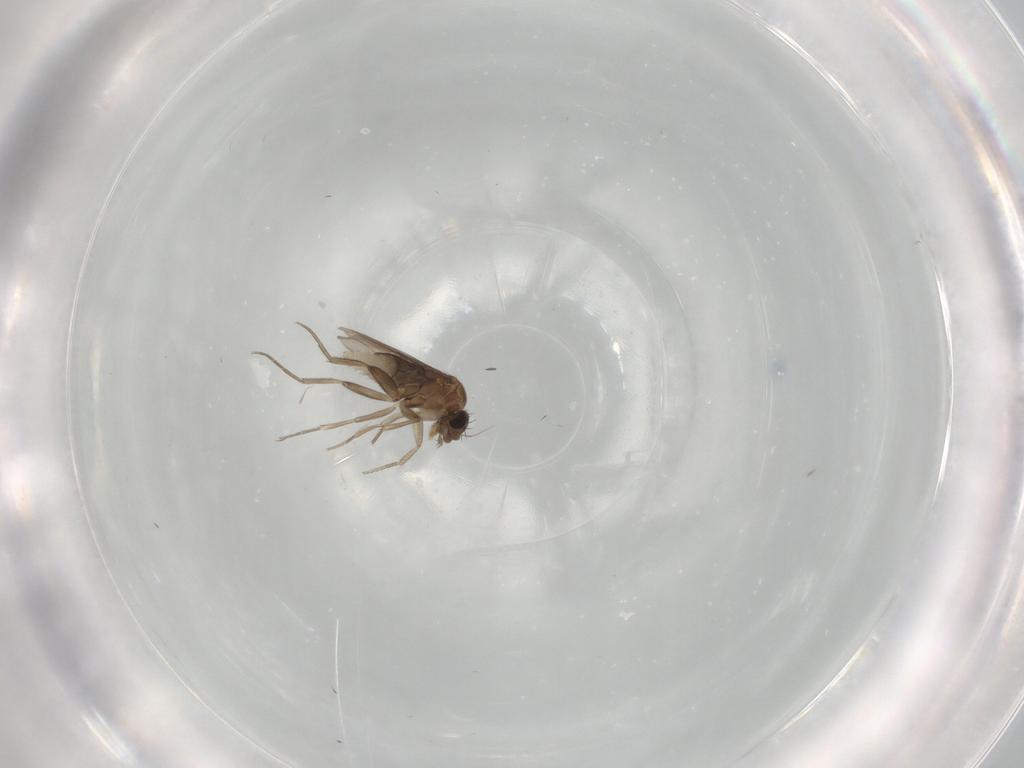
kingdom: Animalia
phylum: Arthropoda
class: Insecta
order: Diptera
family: Phoridae
